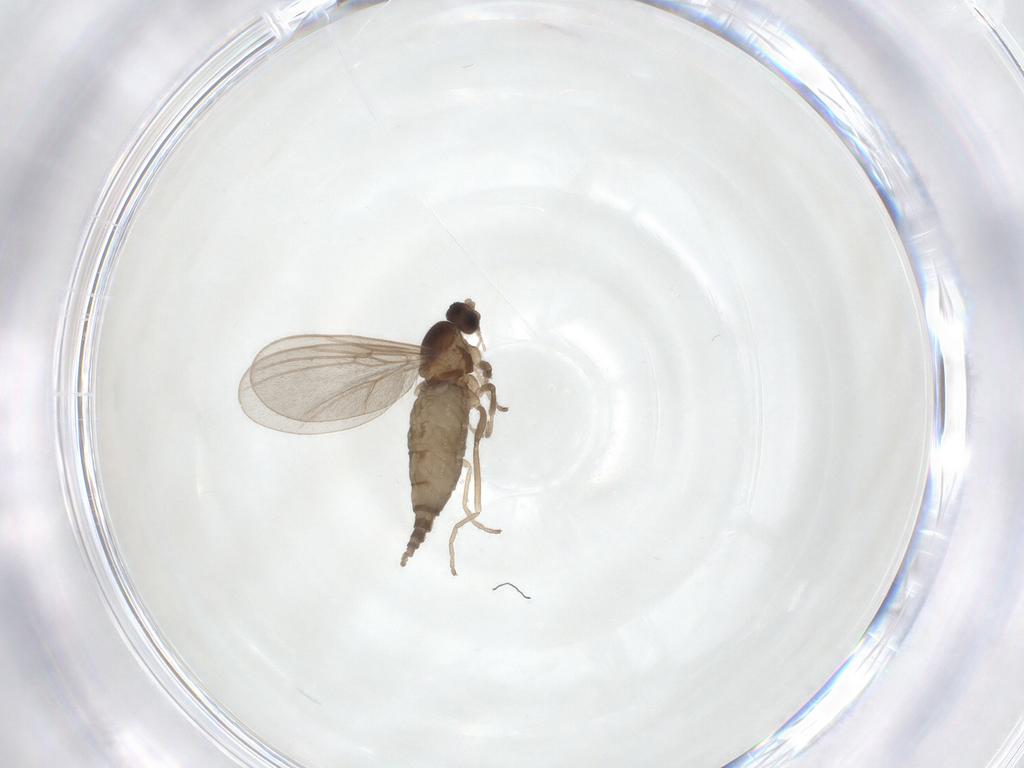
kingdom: Animalia
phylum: Arthropoda
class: Insecta
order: Diptera
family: Cecidomyiidae
